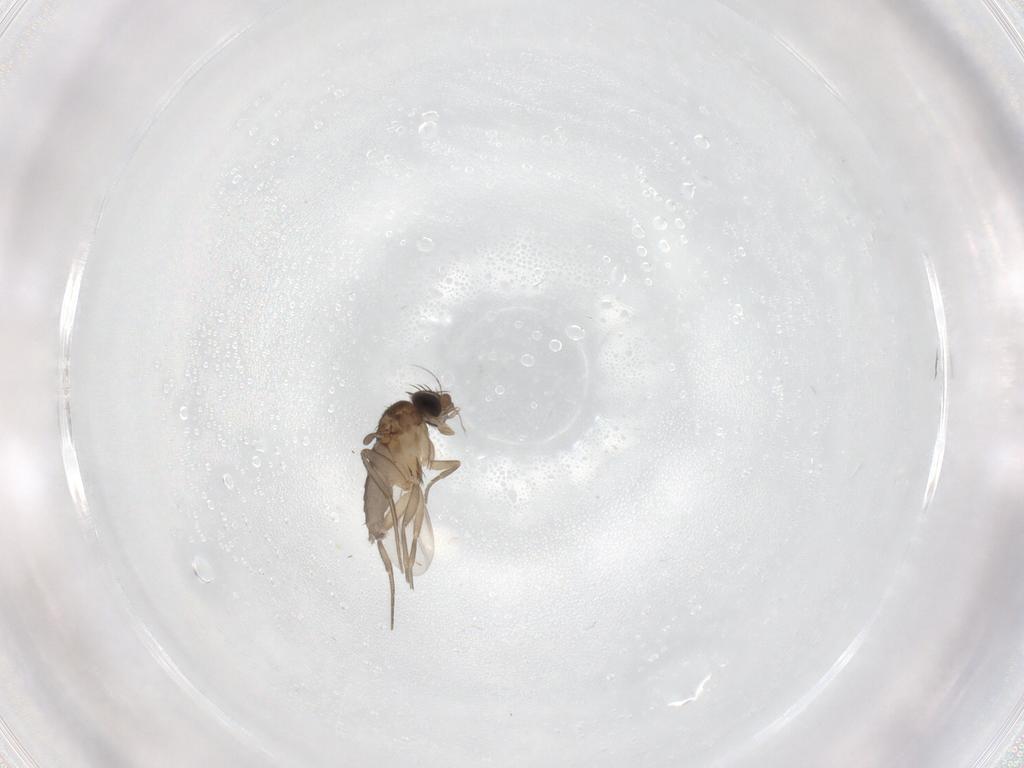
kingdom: Animalia
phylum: Arthropoda
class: Insecta
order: Diptera
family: Phoridae
